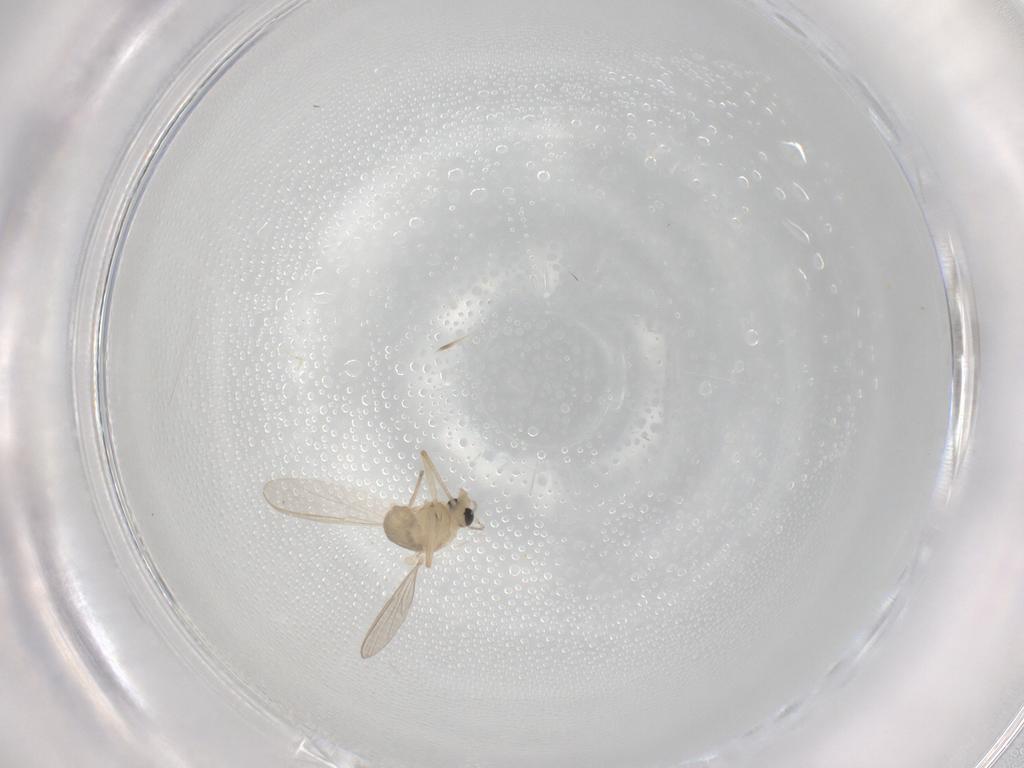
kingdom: Animalia
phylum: Arthropoda
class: Insecta
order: Diptera
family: Chironomidae
